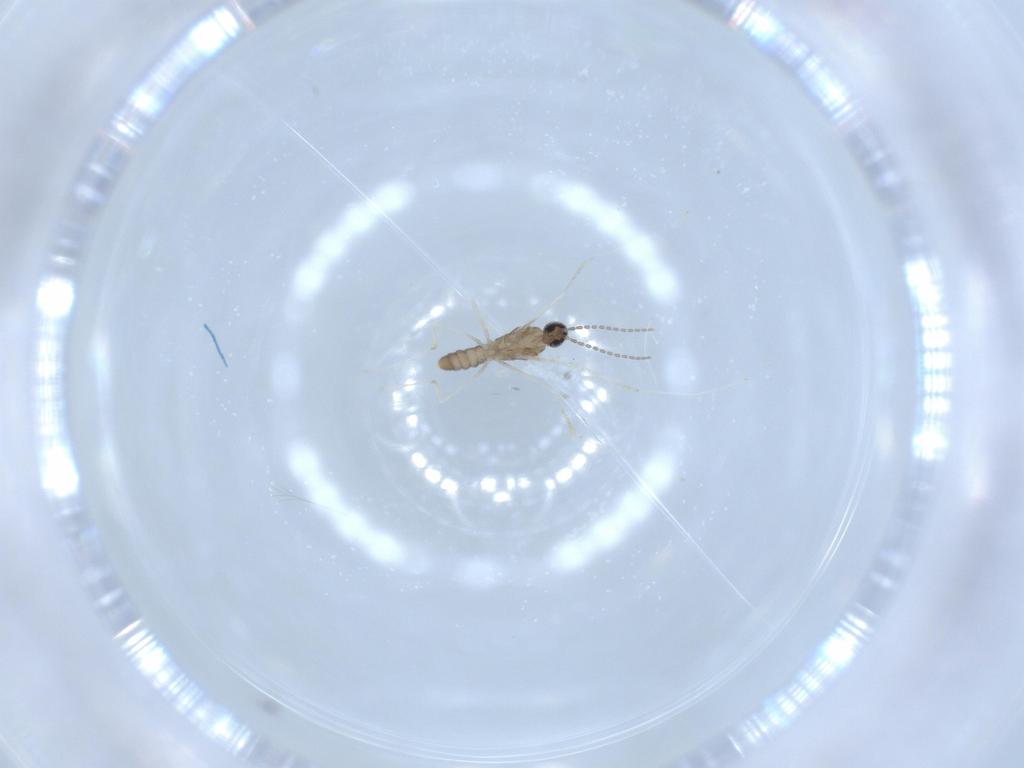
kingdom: Animalia
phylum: Arthropoda
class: Insecta
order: Diptera
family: Cecidomyiidae
